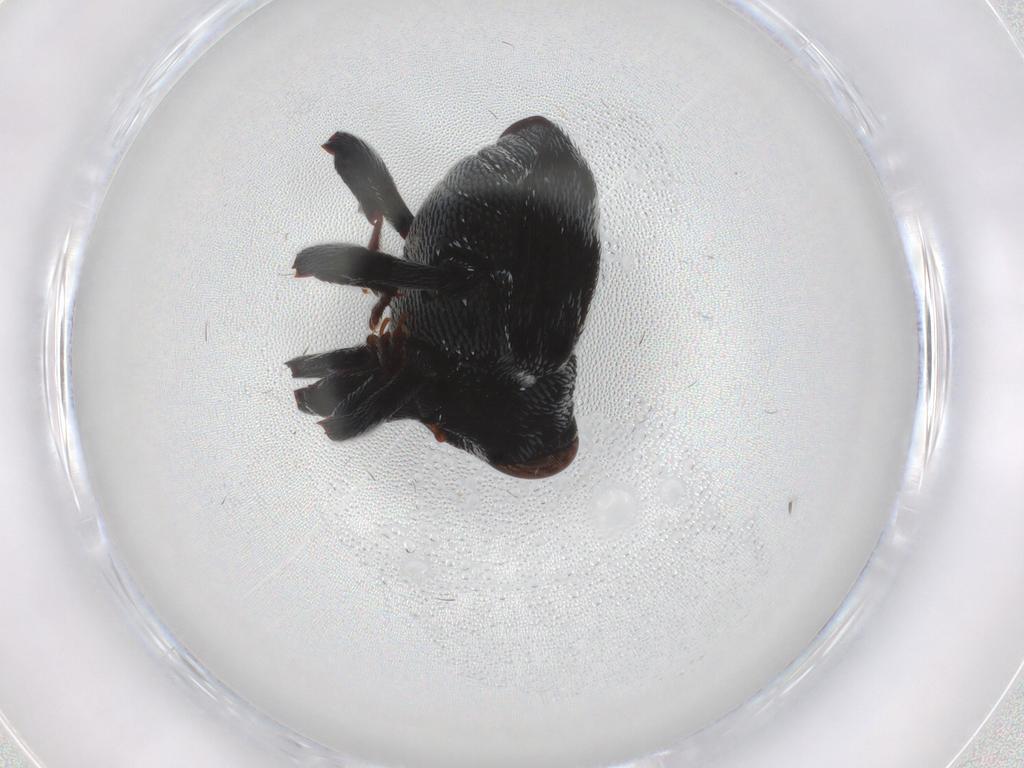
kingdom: Animalia
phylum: Arthropoda
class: Insecta
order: Coleoptera
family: Curculionidae
